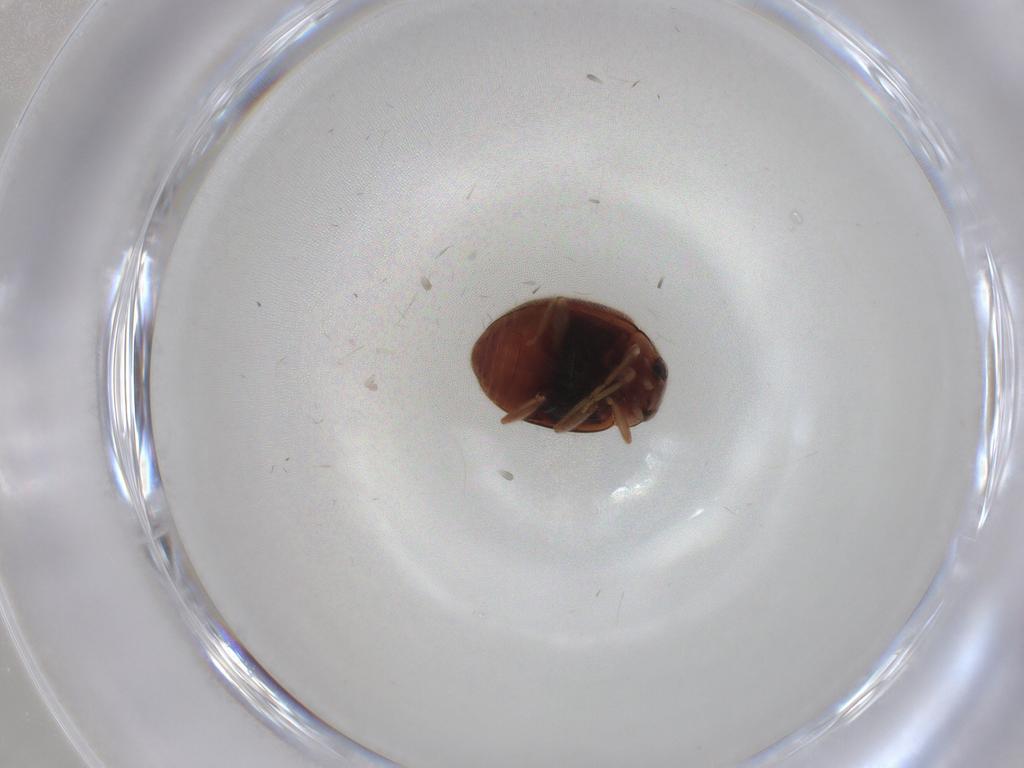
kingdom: Animalia
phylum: Arthropoda
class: Insecta
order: Coleoptera
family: Coccinellidae
